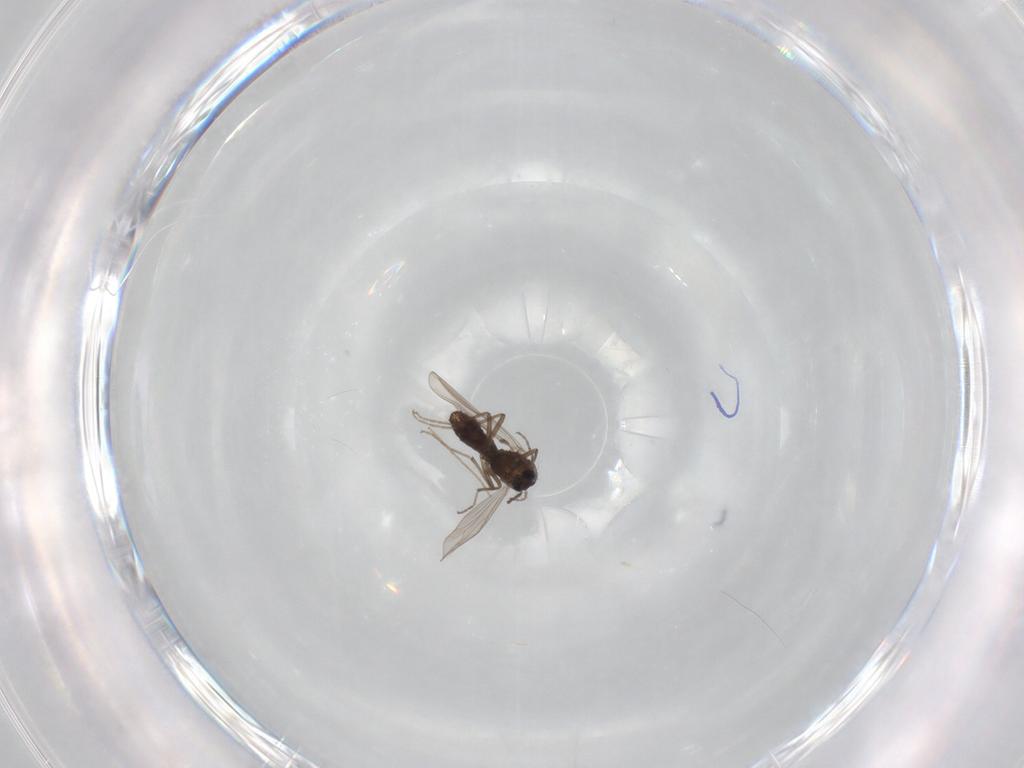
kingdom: Animalia
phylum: Arthropoda
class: Insecta
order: Diptera
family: Chironomidae
